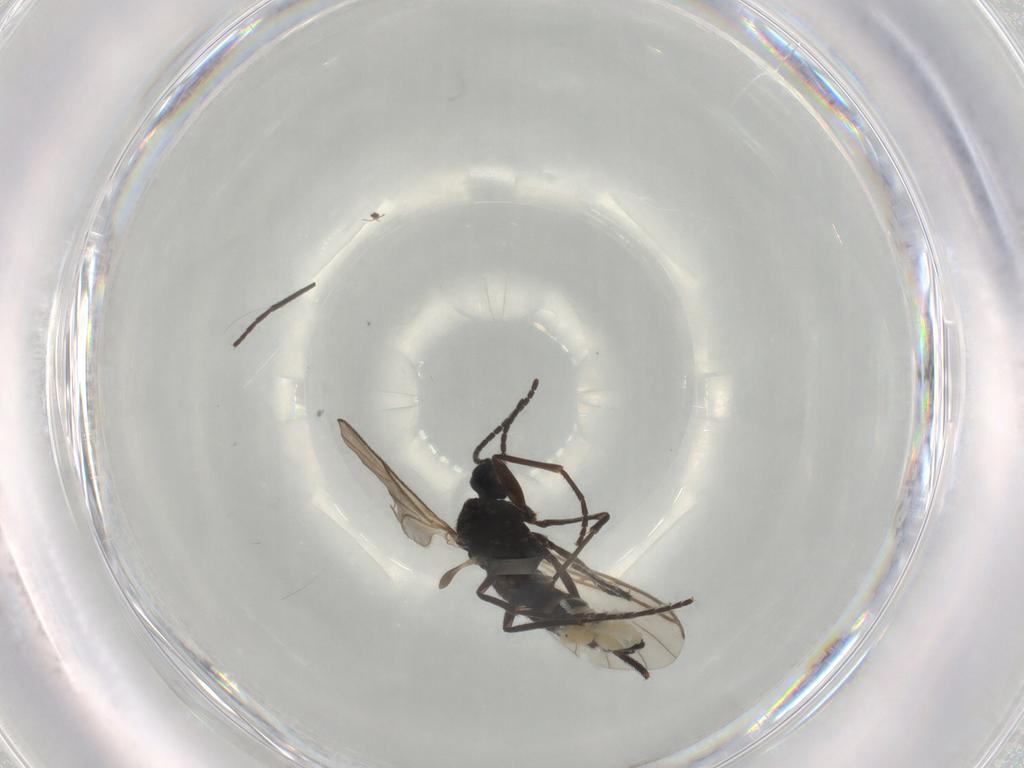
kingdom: Animalia
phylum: Arthropoda
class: Insecta
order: Diptera
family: Sciaridae
